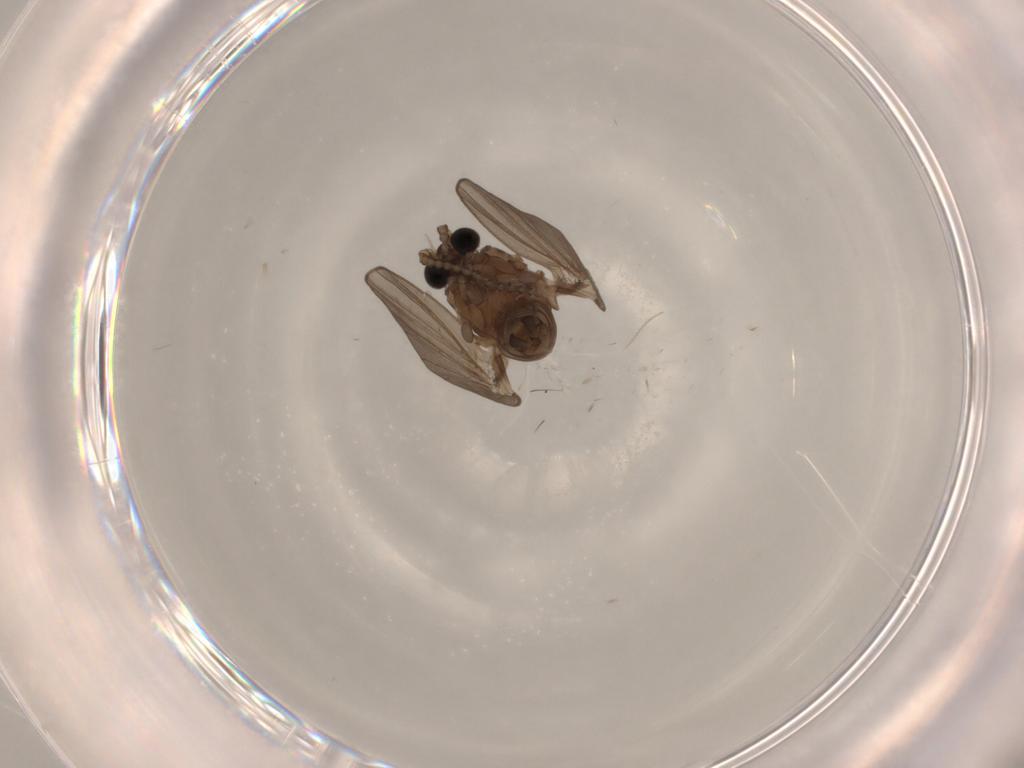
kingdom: Animalia
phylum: Arthropoda
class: Insecta
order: Diptera
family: Psychodidae
